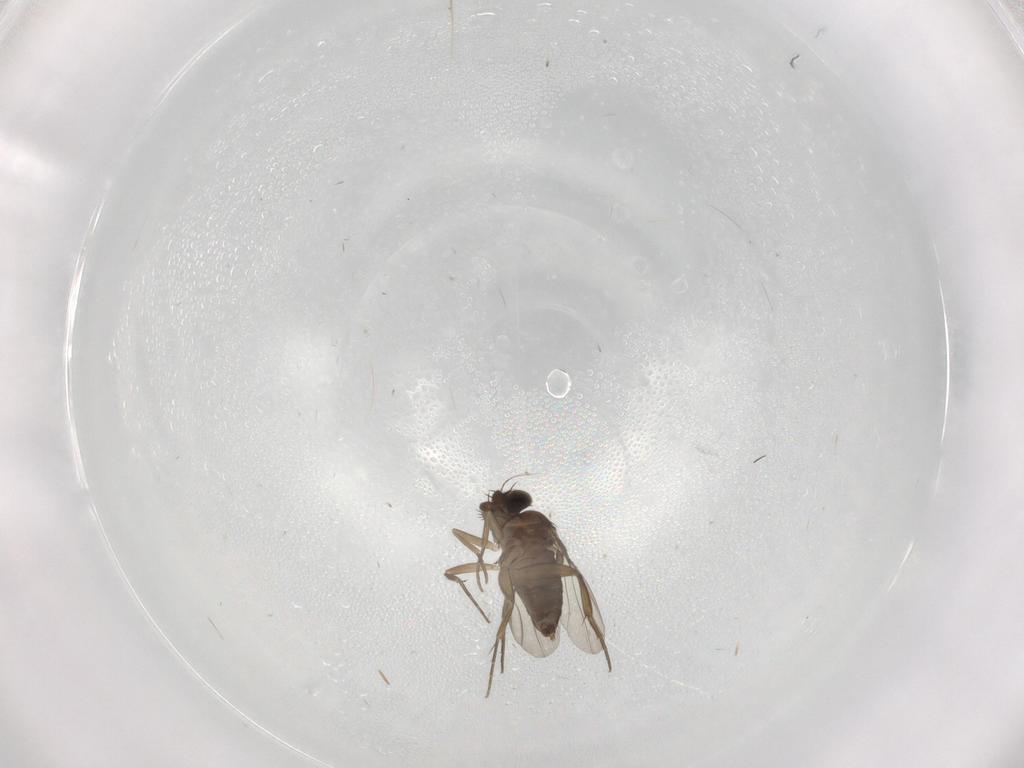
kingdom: Animalia
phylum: Arthropoda
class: Insecta
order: Diptera
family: Phoridae
